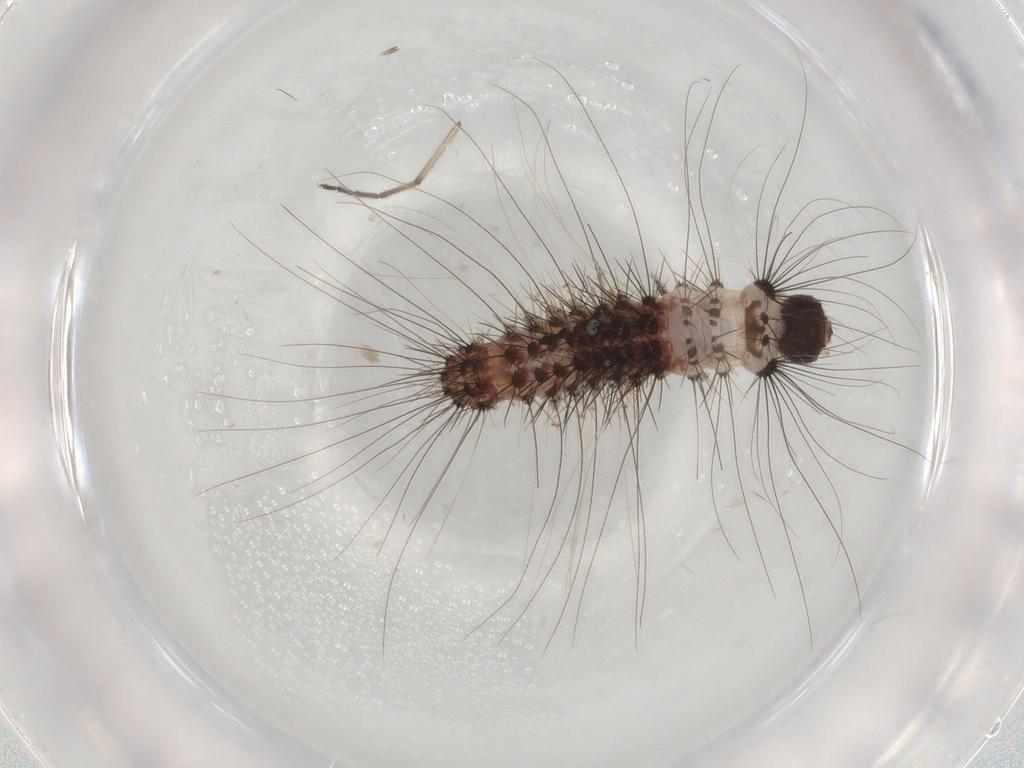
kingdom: Animalia
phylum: Arthropoda
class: Insecta
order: Lepidoptera
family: Scythrididae
